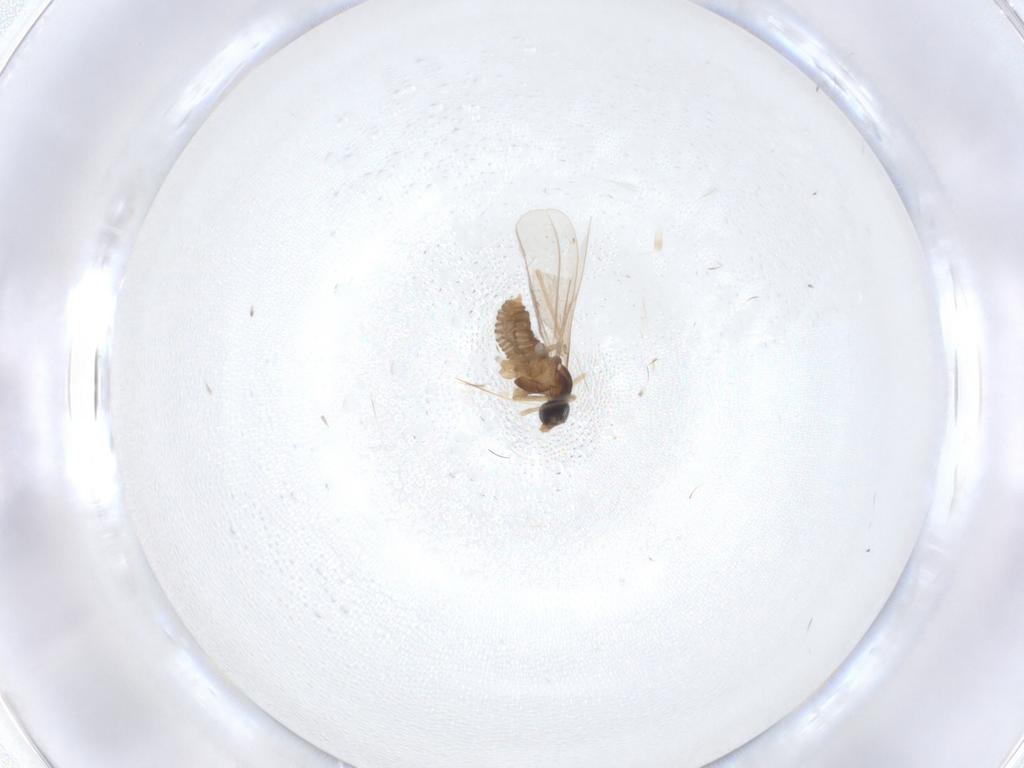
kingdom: Animalia
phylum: Arthropoda
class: Insecta
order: Diptera
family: Cecidomyiidae
